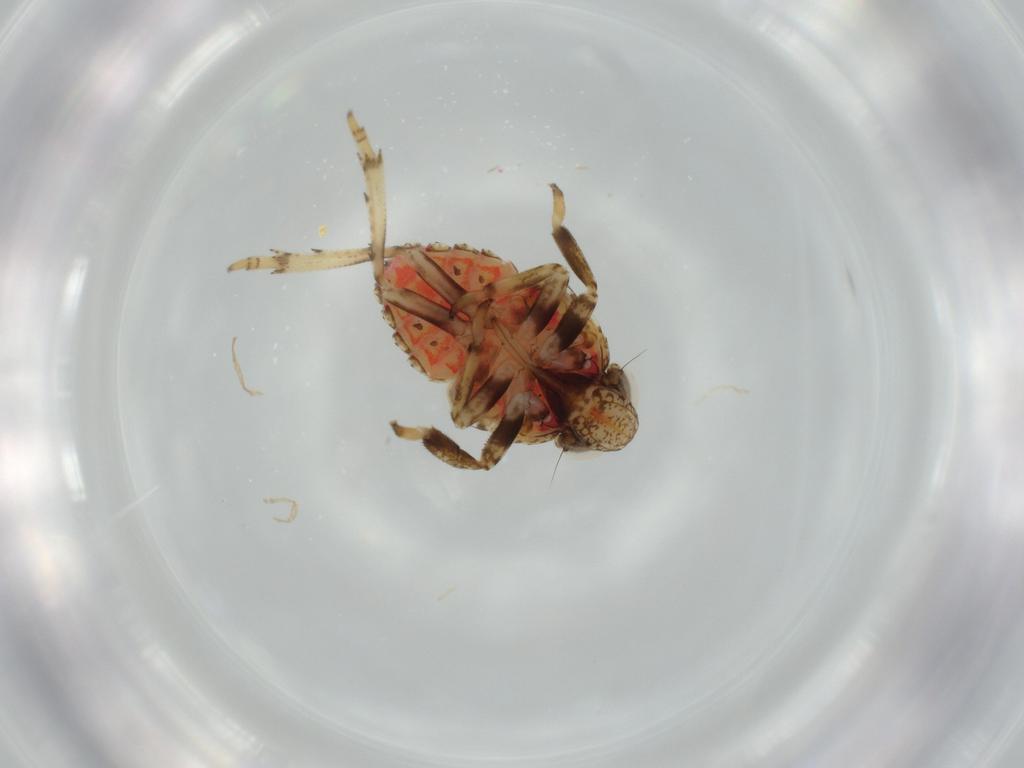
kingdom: Animalia
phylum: Arthropoda
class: Insecta
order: Hemiptera
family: Issidae
